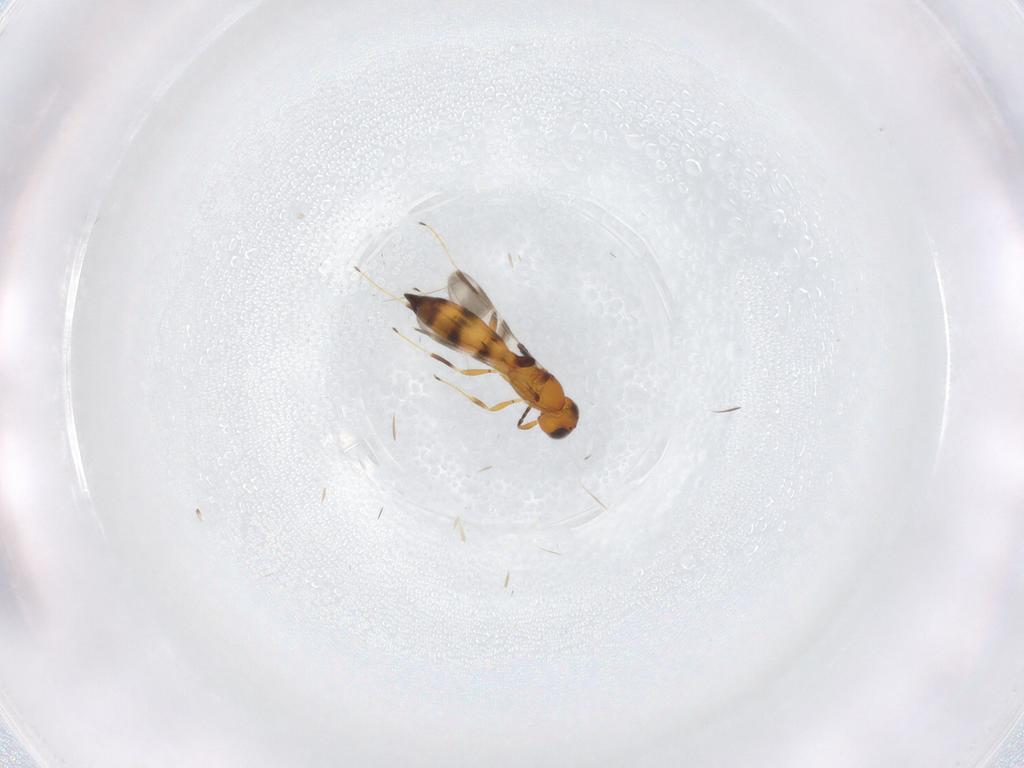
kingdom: Animalia
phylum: Arthropoda
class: Insecta
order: Hymenoptera
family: Scelionidae
